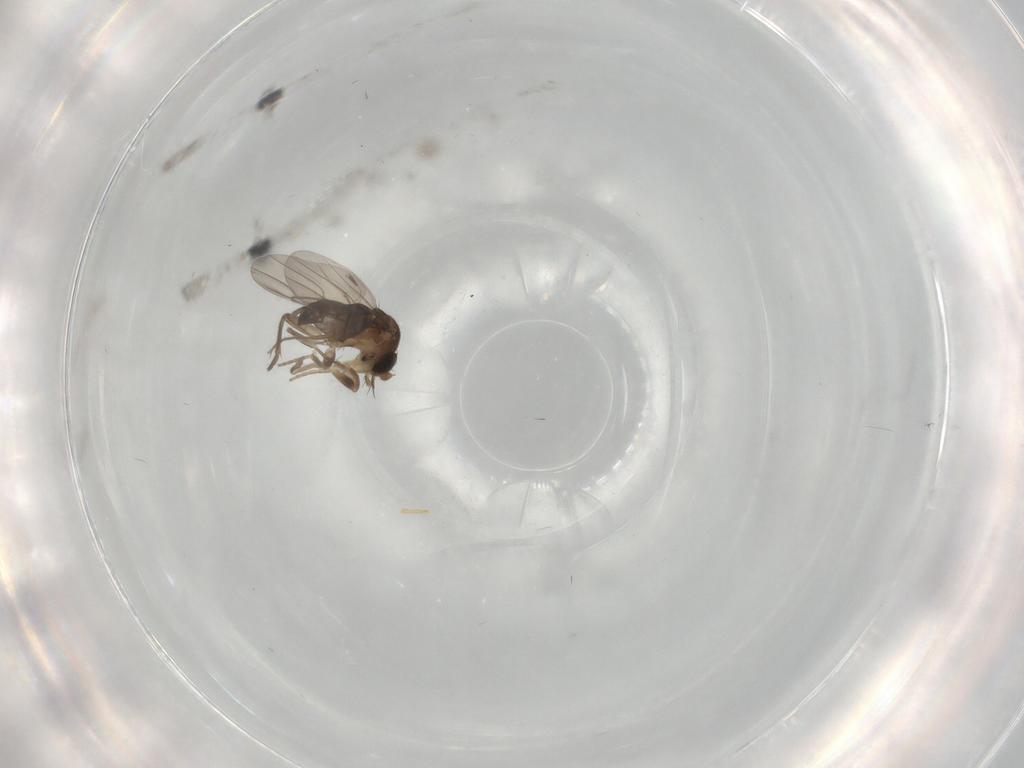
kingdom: Animalia
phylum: Arthropoda
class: Insecta
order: Diptera
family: Phoridae
